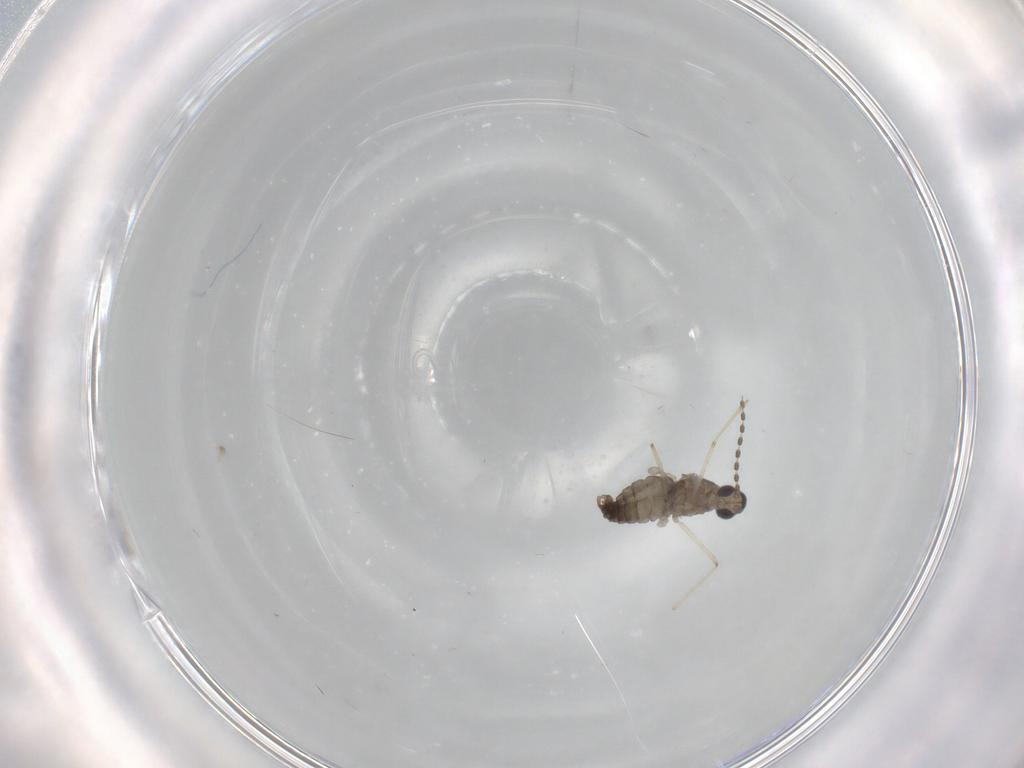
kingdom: Animalia
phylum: Arthropoda
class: Insecta
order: Diptera
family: Cecidomyiidae
